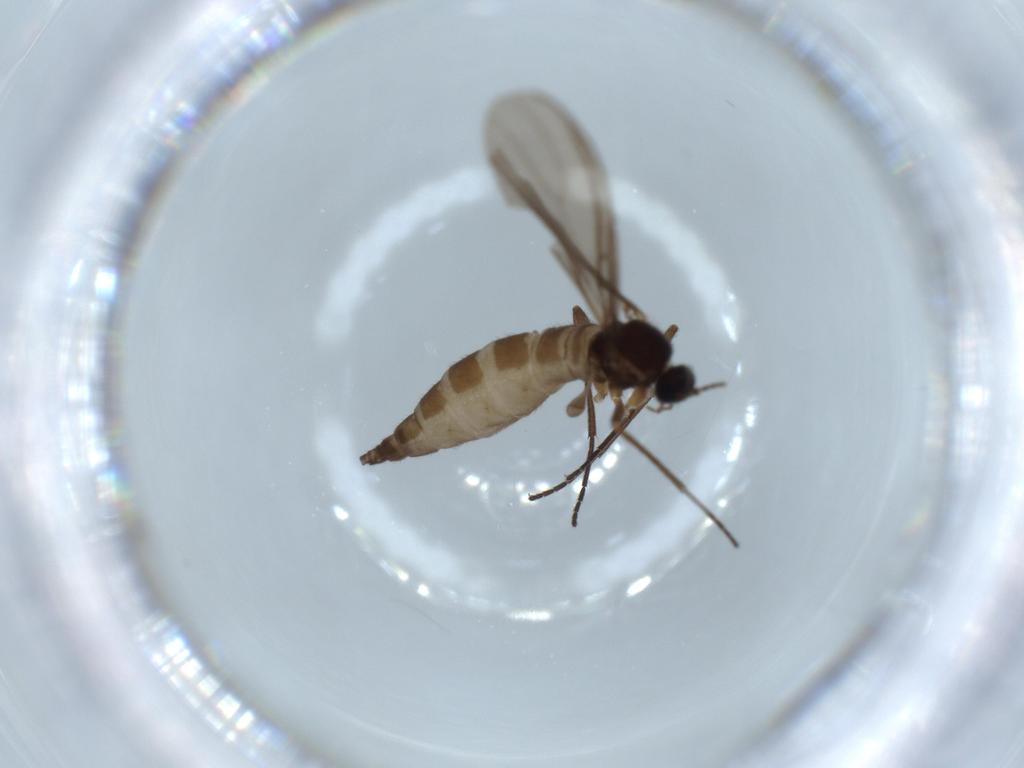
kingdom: Animalia
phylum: Arthropoda
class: Insecta
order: Diptera
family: Sciaridae
